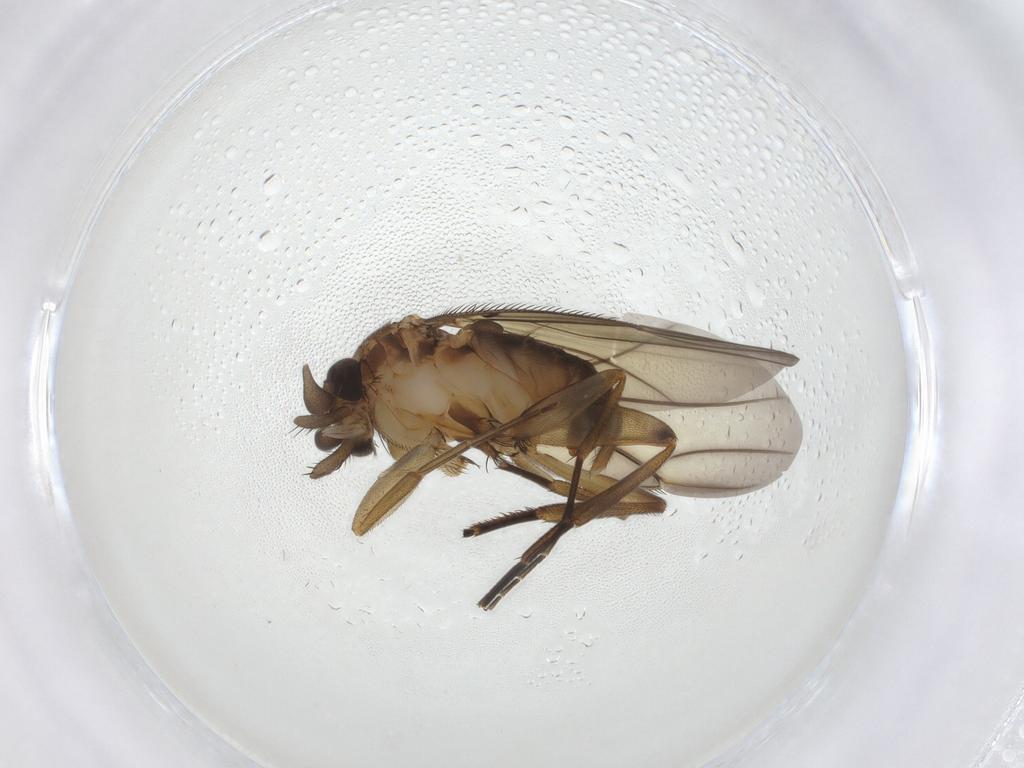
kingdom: Animalia
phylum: Arthropoda
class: Insecta
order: Diptera
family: Phoridae
